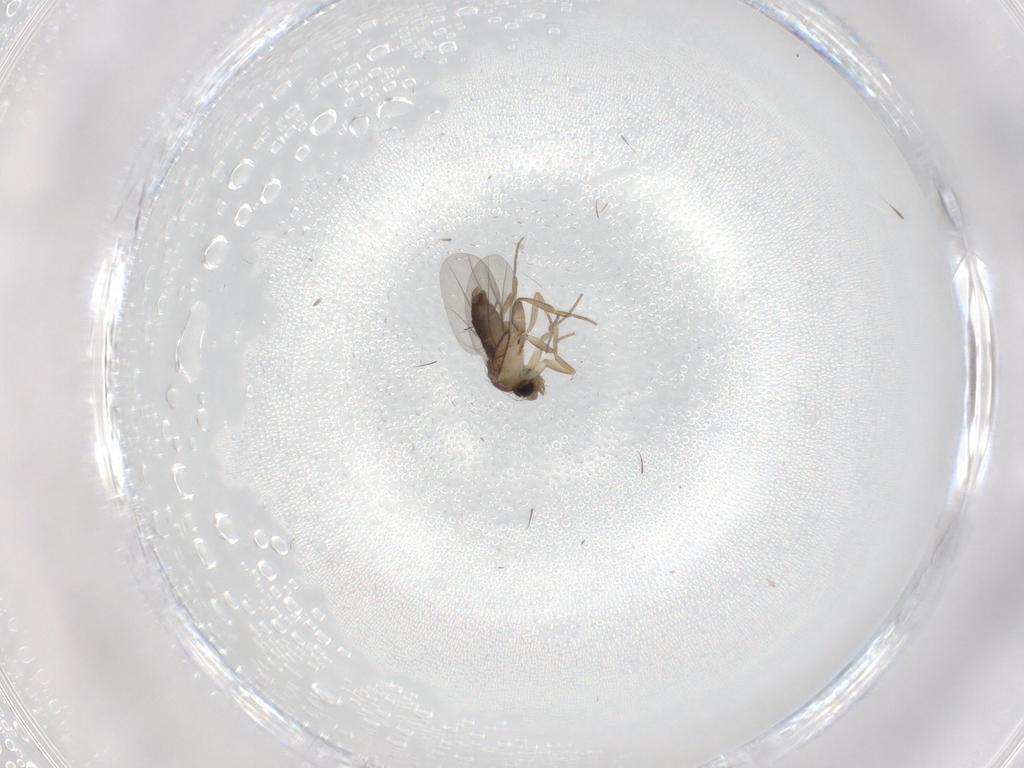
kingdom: Animalia
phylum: Arthropoda
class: Insecta
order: Diptera
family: Phoridae
